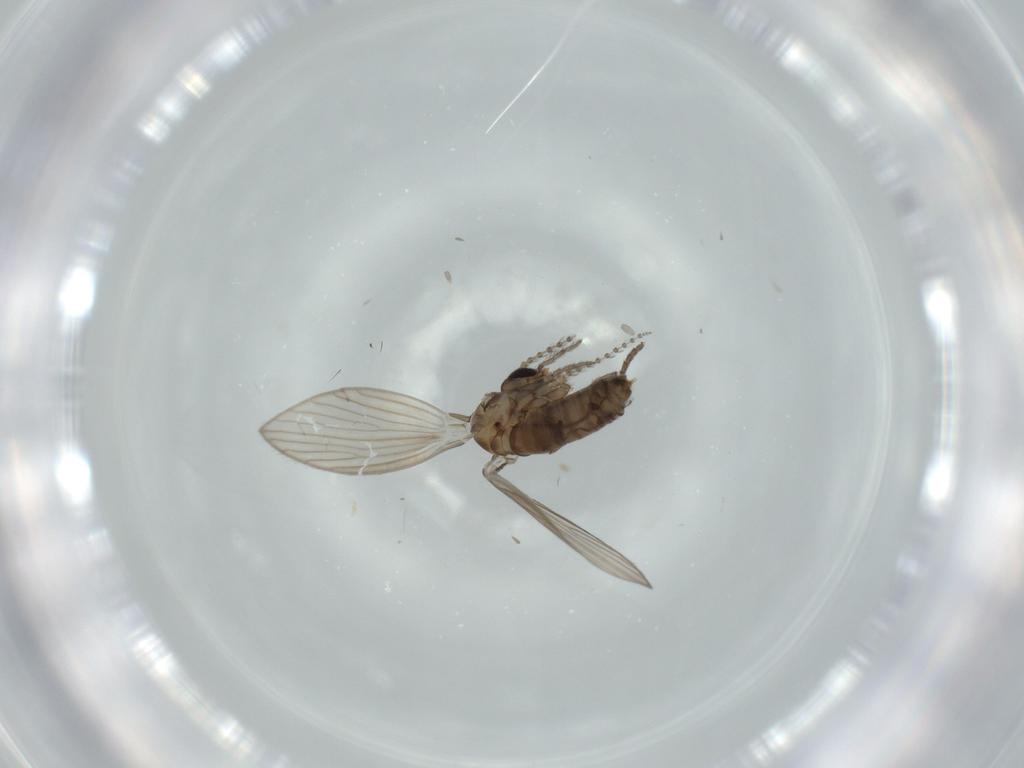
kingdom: Animalia
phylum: Arthropoda
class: Insecta
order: Diptera
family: Psychodidae
